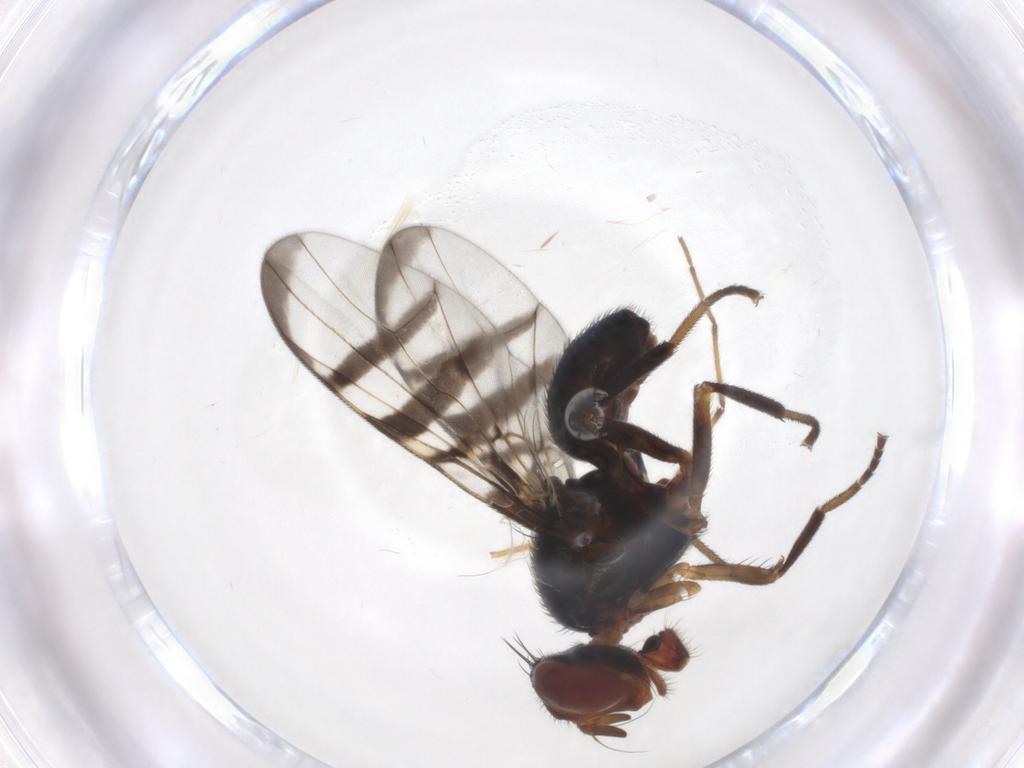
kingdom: Animalia
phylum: Arthropoda
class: Insecta
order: Diptera
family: Platystomatidae
